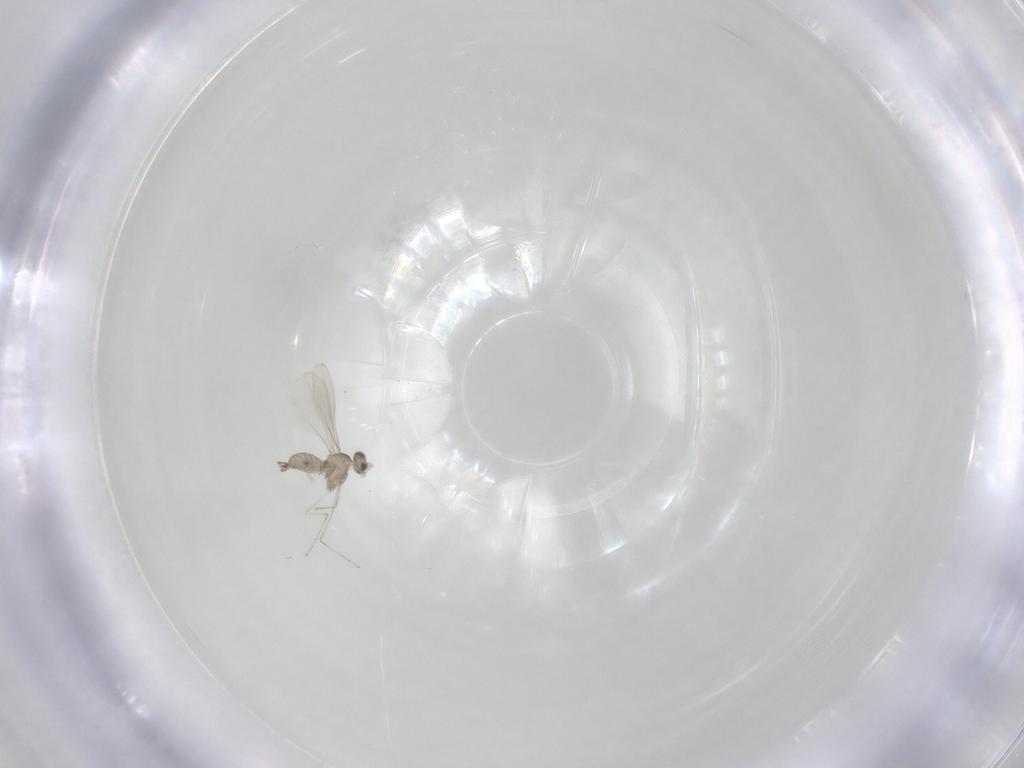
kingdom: Animalia
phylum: Arthropoda
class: Insecta
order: Diptera
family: Cecidomyiidae
